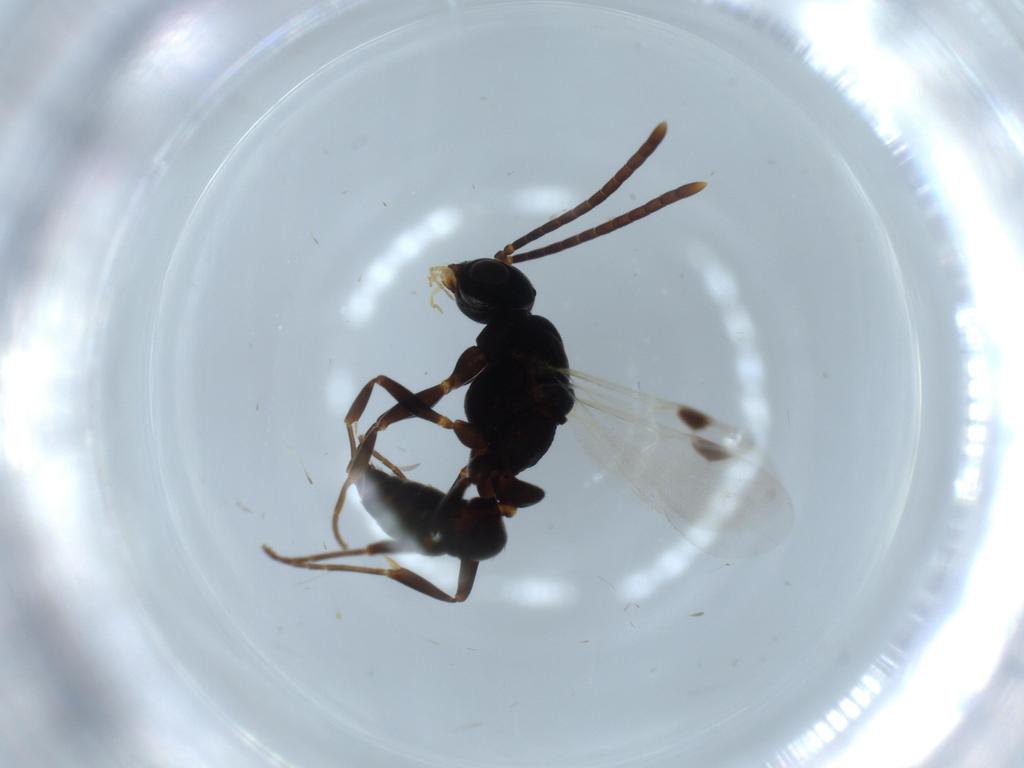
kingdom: Animalia
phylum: Arthropoda
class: Insecta
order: Hymenoptera
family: Formicidae
